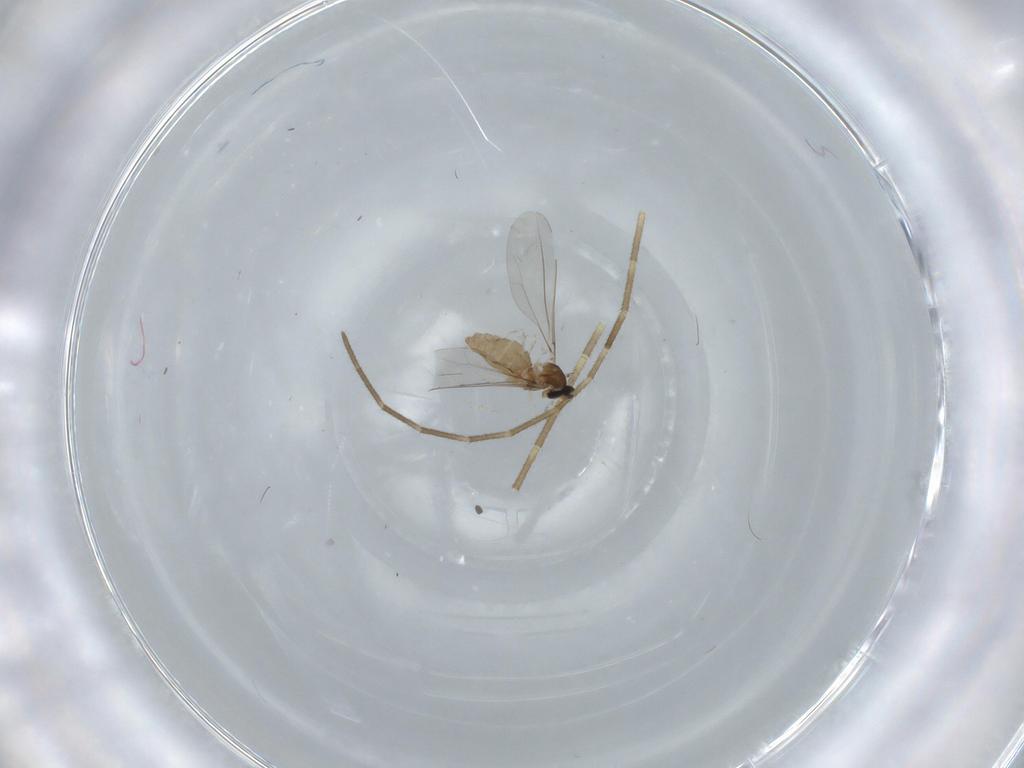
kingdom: Animalia
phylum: Arthropoda
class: Insecta
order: Diptera
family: Cecidomyiidae
